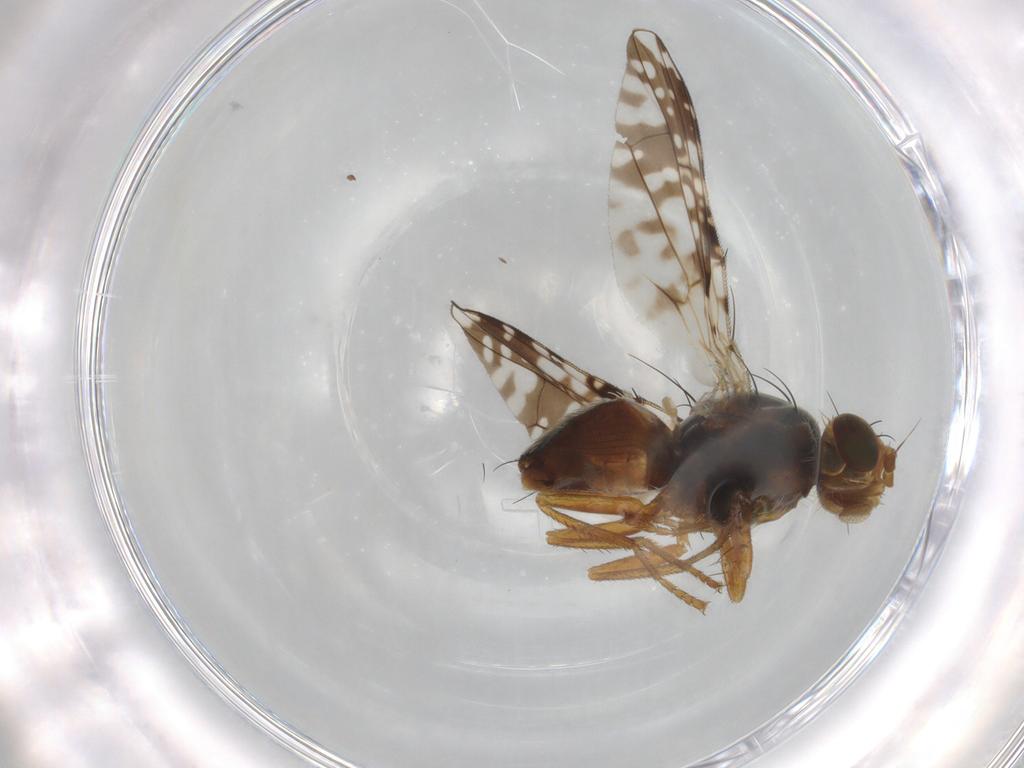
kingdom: Animalia
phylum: Arthropoda
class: Insecta
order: Diptera
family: Tephritidae
